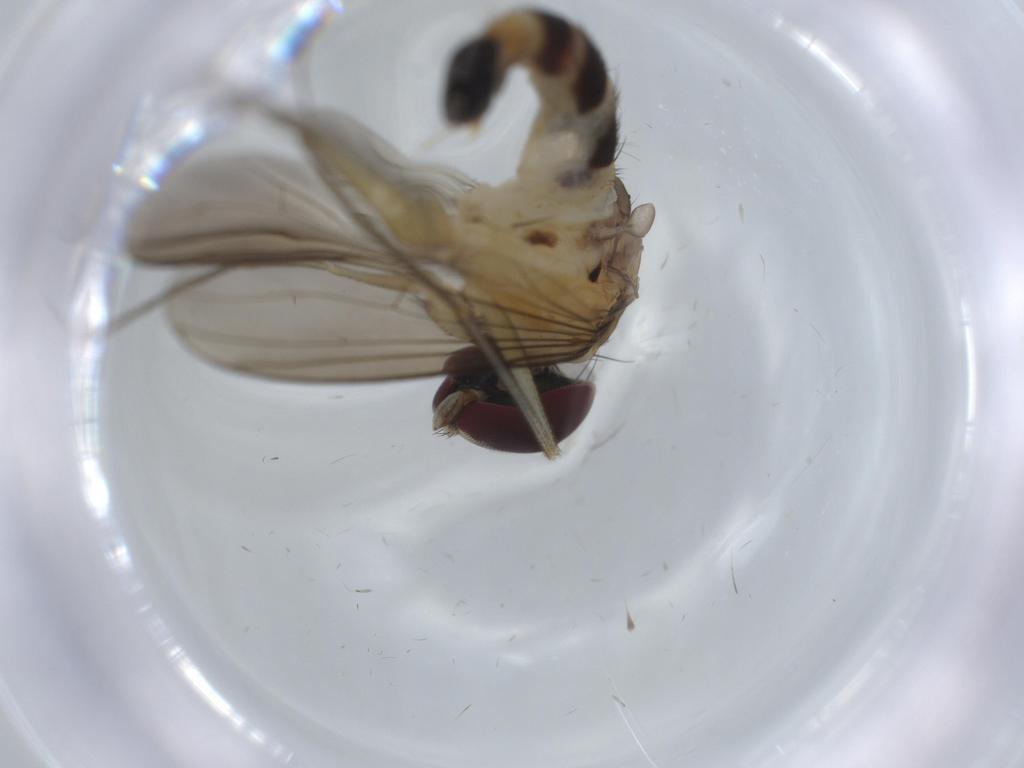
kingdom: Animalia
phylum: Arthropoda
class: Insecta
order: Diptera
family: Dolichopodidae
